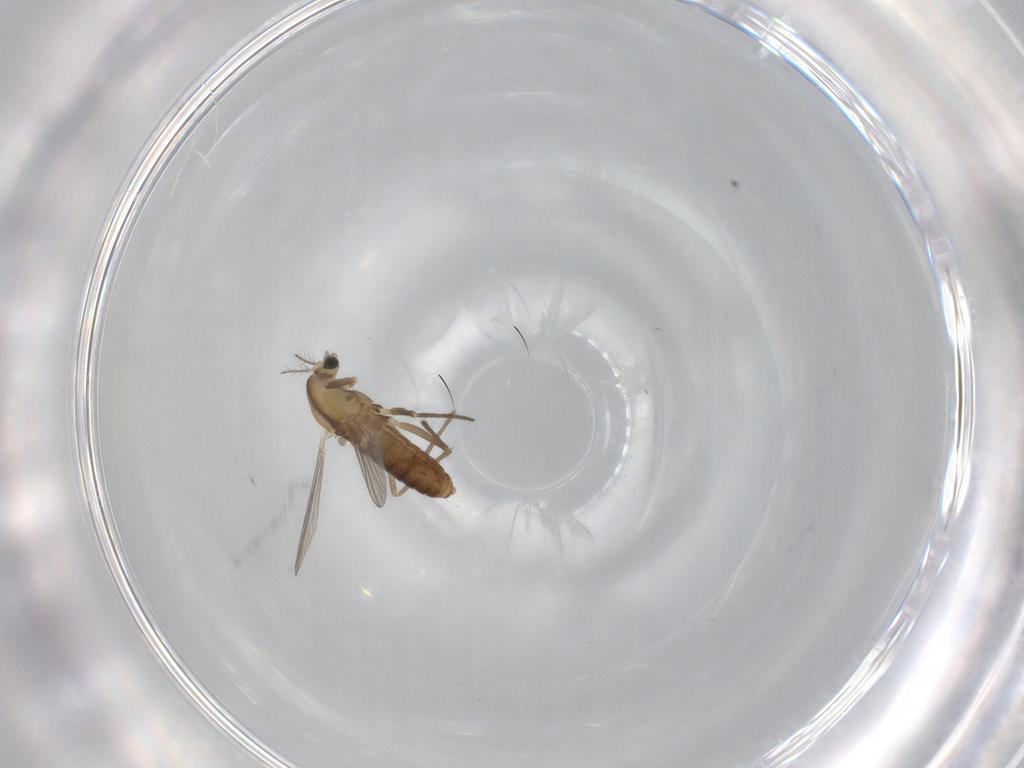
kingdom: Animalia
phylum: Arthropoda
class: Insecta
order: Diptera
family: Chironomidae
